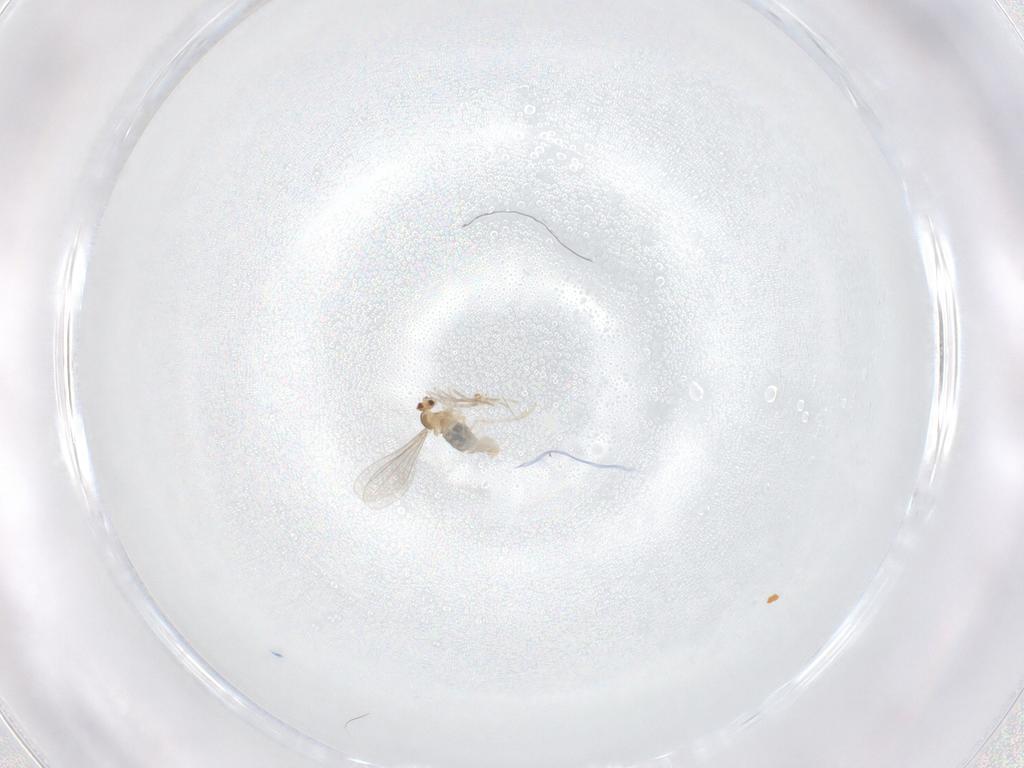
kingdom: Animalia
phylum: Arthropoda
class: Insecta
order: Diptera
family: Cecidomyiidae
